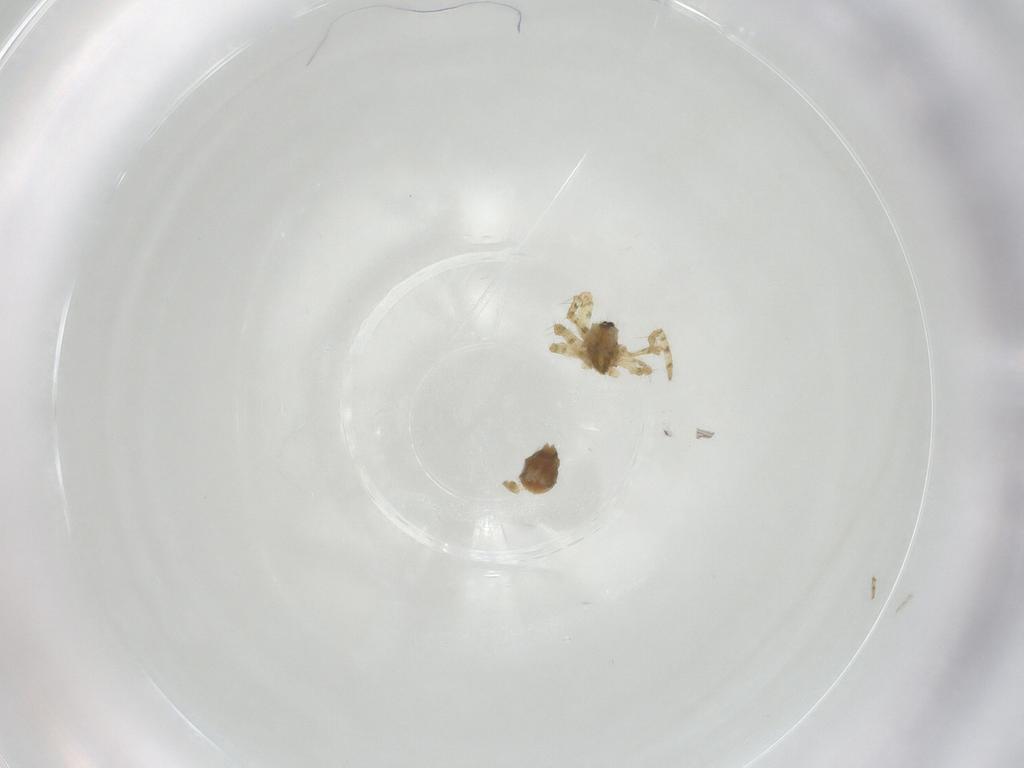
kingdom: Animalia
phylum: Arthropoda
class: Arachnida
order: Araneae
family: Theridiidae
